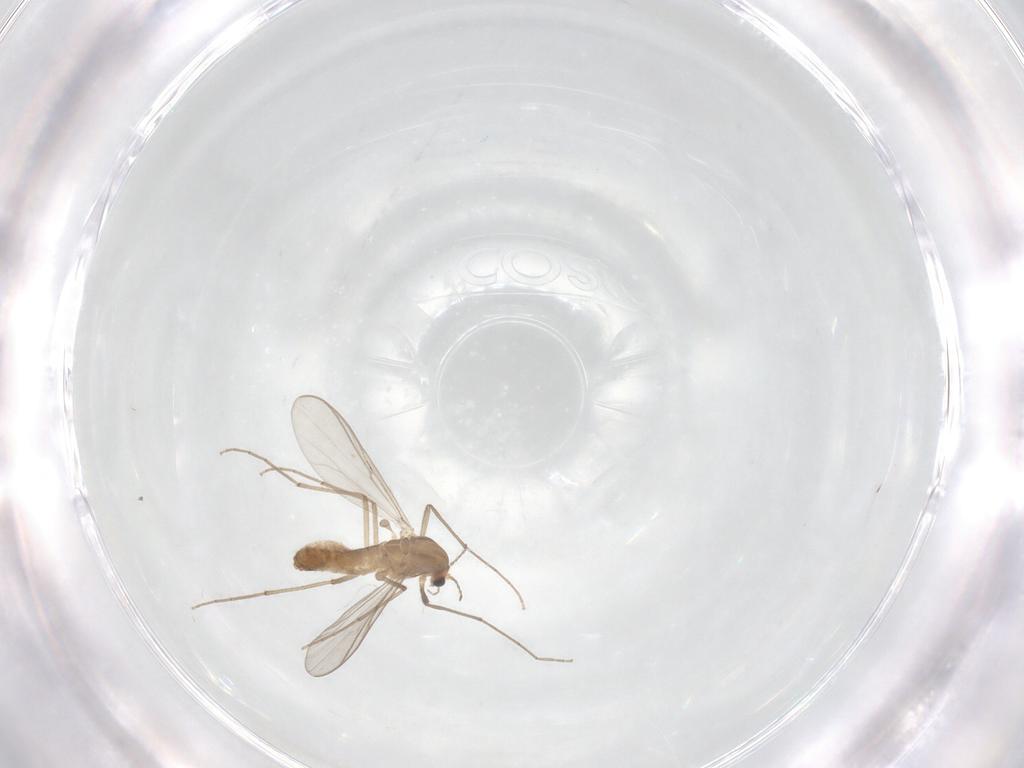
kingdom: Animalia
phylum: Arthropoda
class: Insecta
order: Diptera
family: Chironomidae
